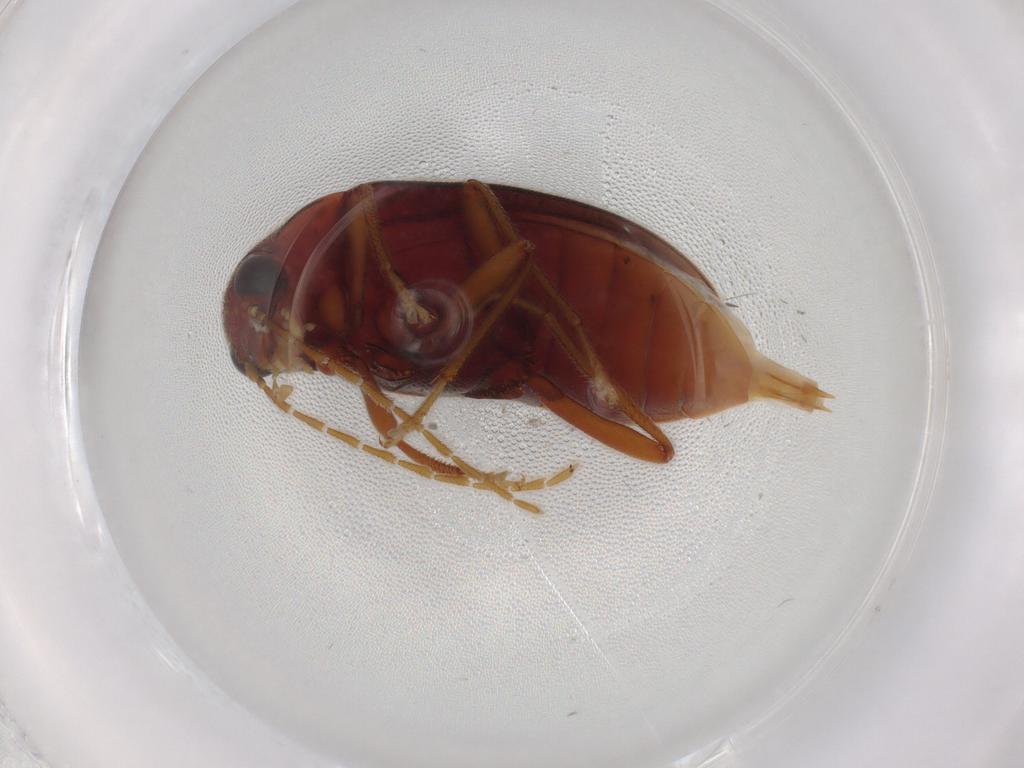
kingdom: Animalia
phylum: Arthropoda
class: Insecta
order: Coleoptera
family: Ptilodactylidae
